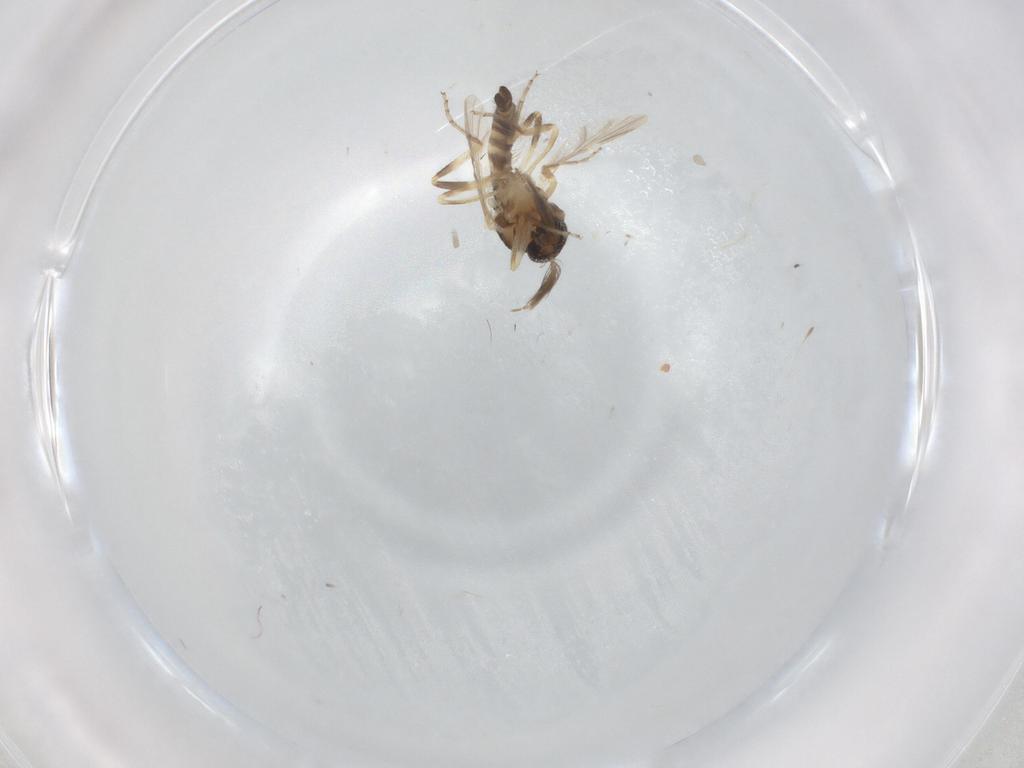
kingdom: Animalia
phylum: Arthropoda
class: Insecta
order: Diptera
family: Ceratopogonidae
